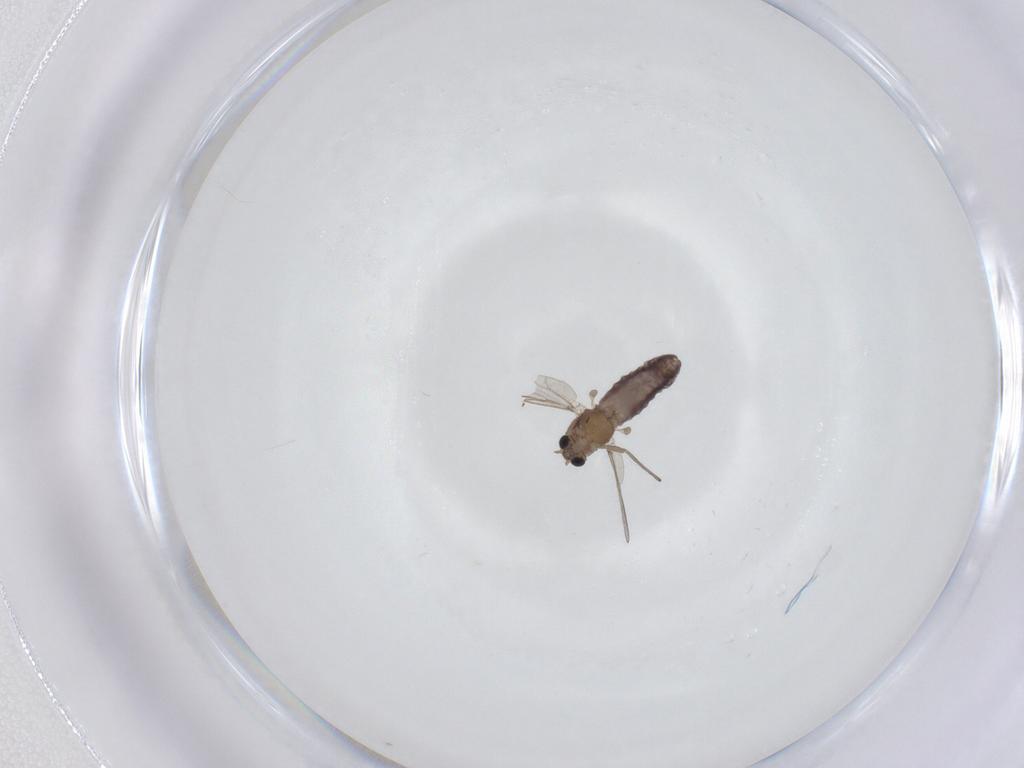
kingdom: Animalia
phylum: Arthropoda
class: Insecta
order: Diptera
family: Chironomidae
